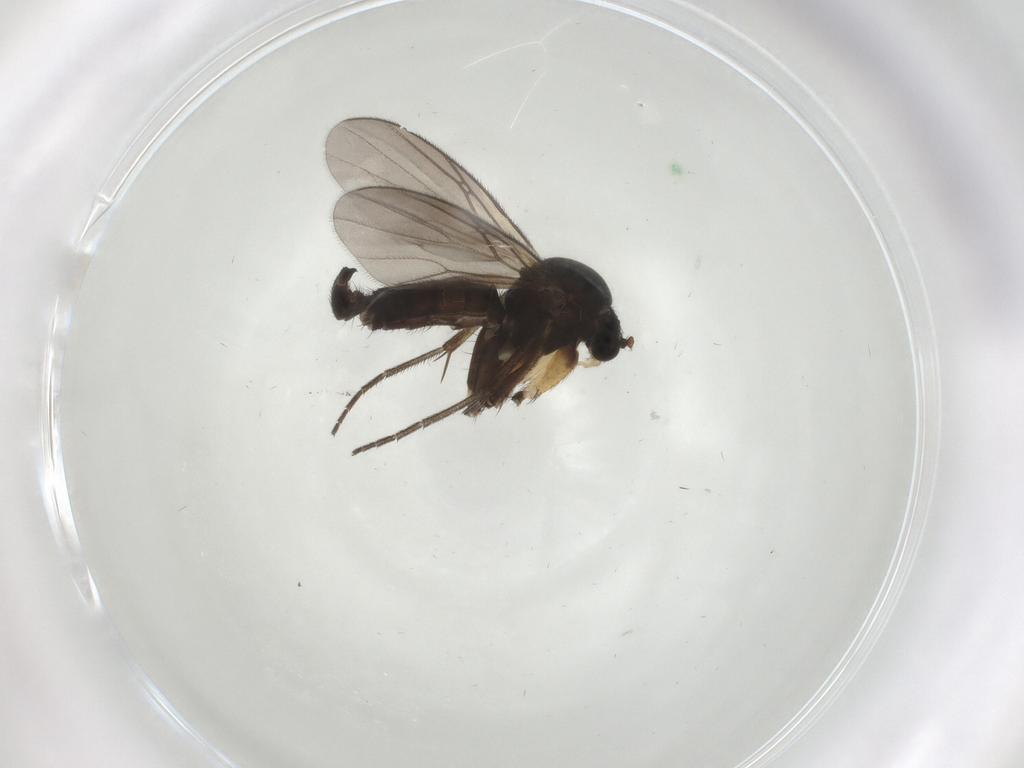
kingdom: Animalia
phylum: Arthropoda
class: Insecta
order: Diptera
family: Mycetophilidae
